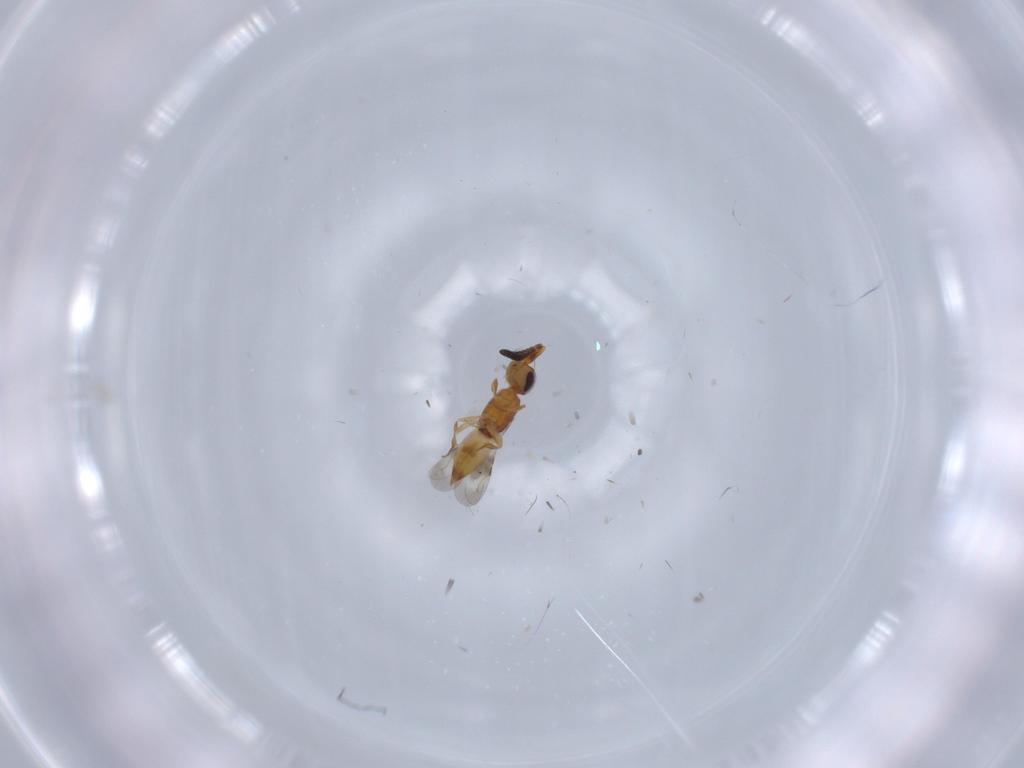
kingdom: Animalia
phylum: Arthropoda
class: Insecta
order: Hymenoptera
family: Ceraphronidae
